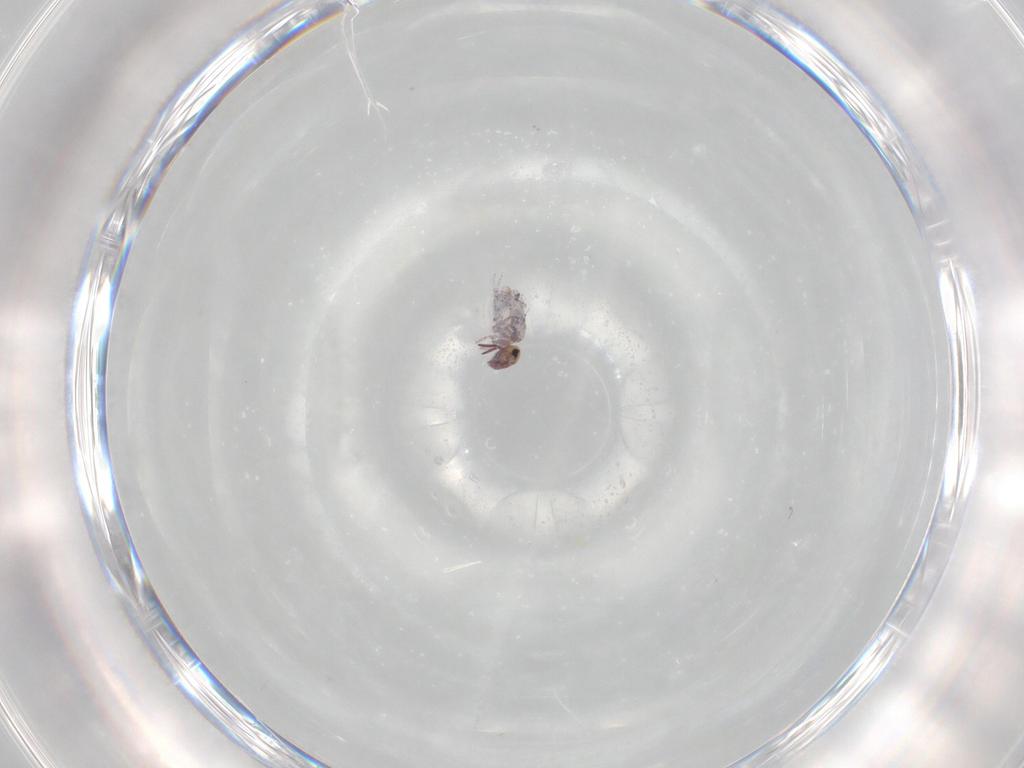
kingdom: Animalia
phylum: Arthropoda
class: Collembola
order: Symphypleona
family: Bourletiellidae
